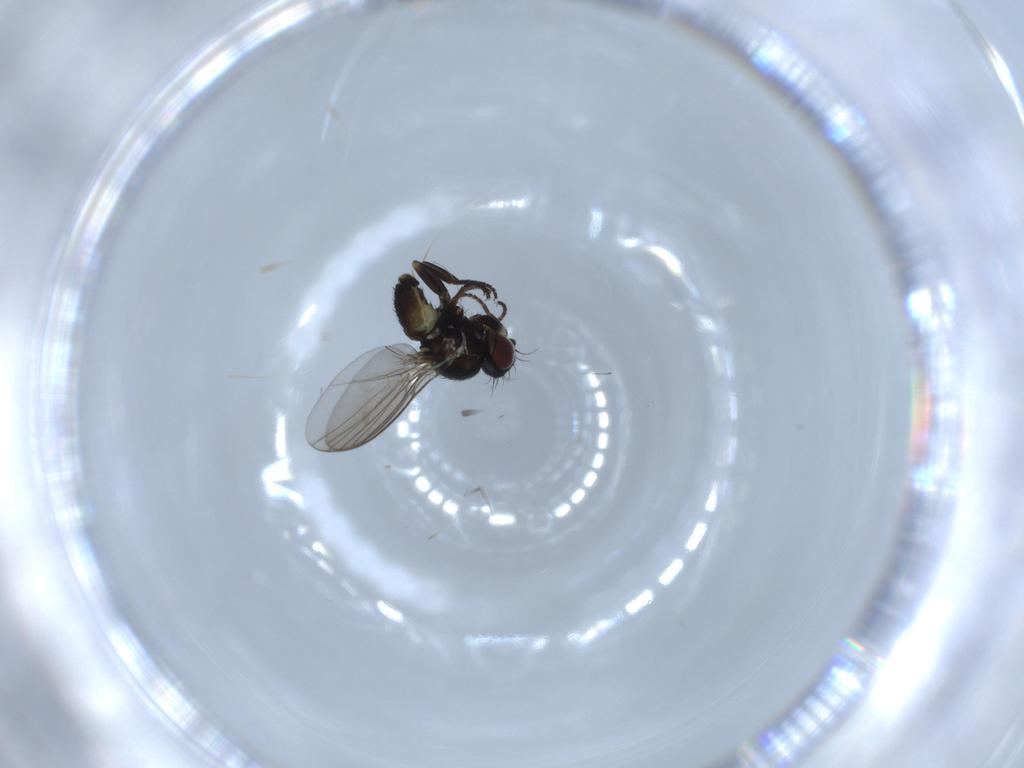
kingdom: Animalia
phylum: Arthropoda
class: Insecta
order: Diptera
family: Agromyzidae
